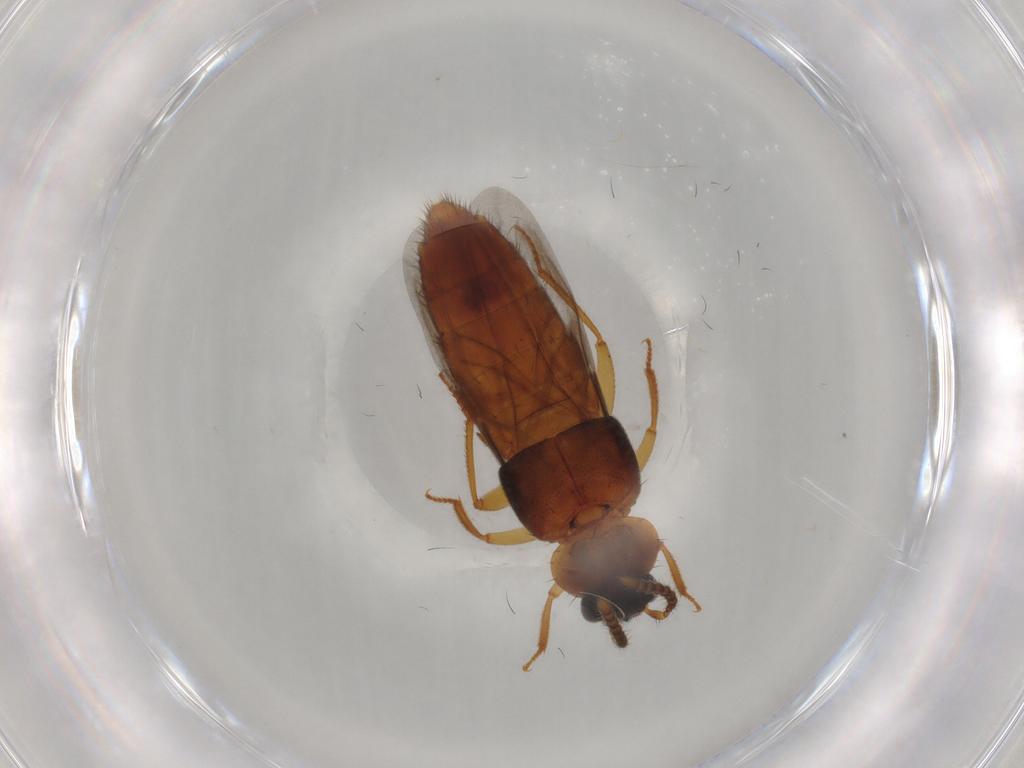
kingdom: Animalia
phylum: Arthropoda
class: Insecta
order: Coleoptera
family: Staphylinidae
